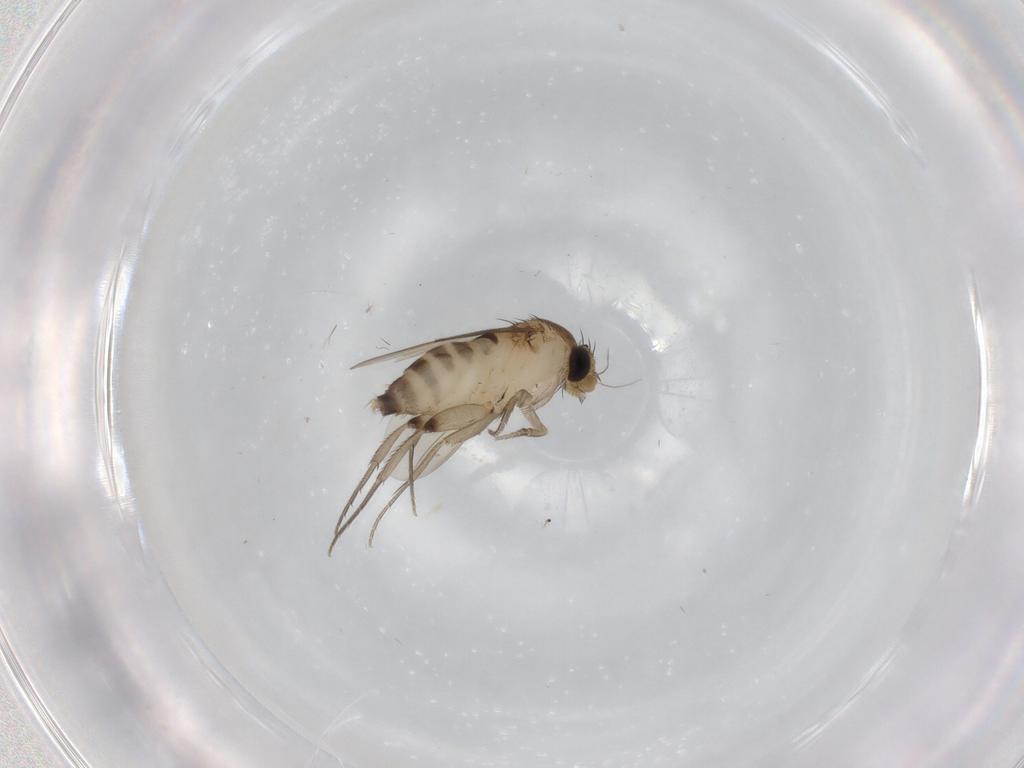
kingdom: Animalia
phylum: Arthropoda
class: Insecta
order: Diptera
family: Phoridae
